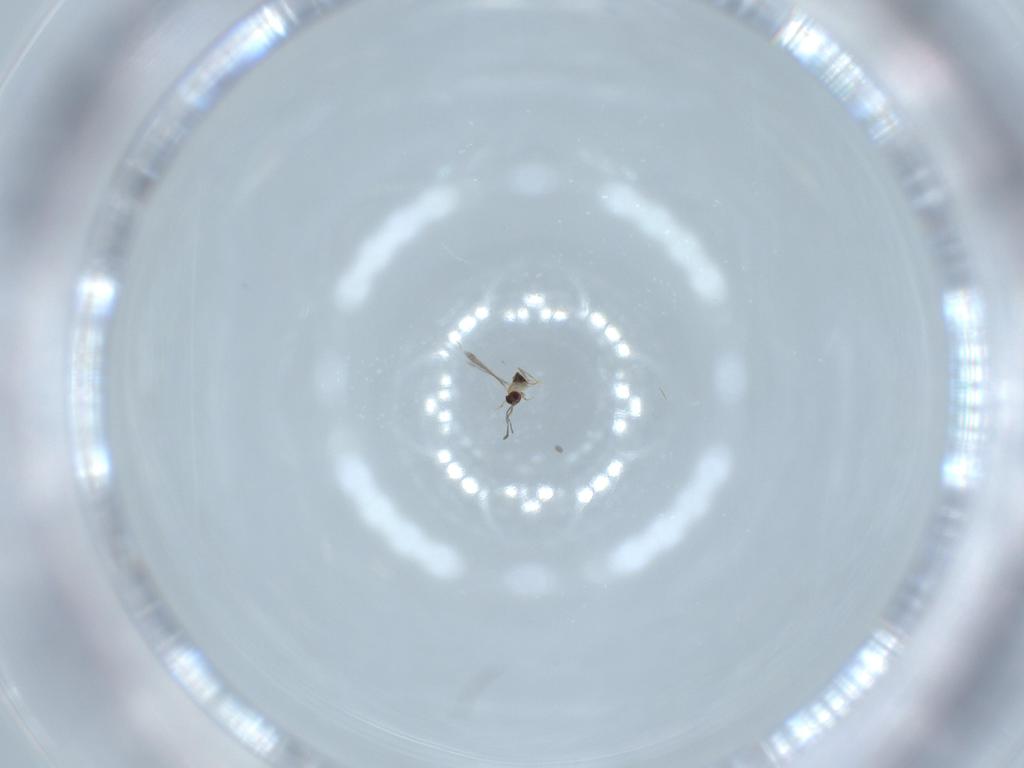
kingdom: Animalia
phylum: Arthropoda
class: Insecta
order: Hymenoptera
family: Mymaridae
